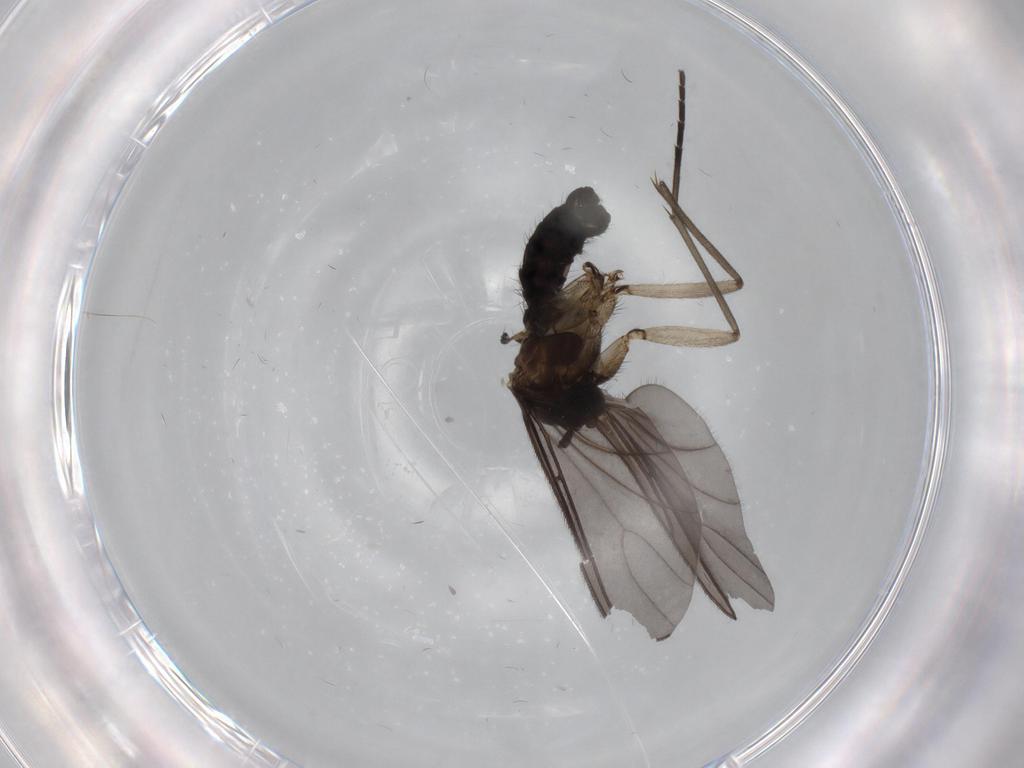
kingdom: Animalia
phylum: Arthropoda
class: Insecta
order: Diptera
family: Sciaridae
